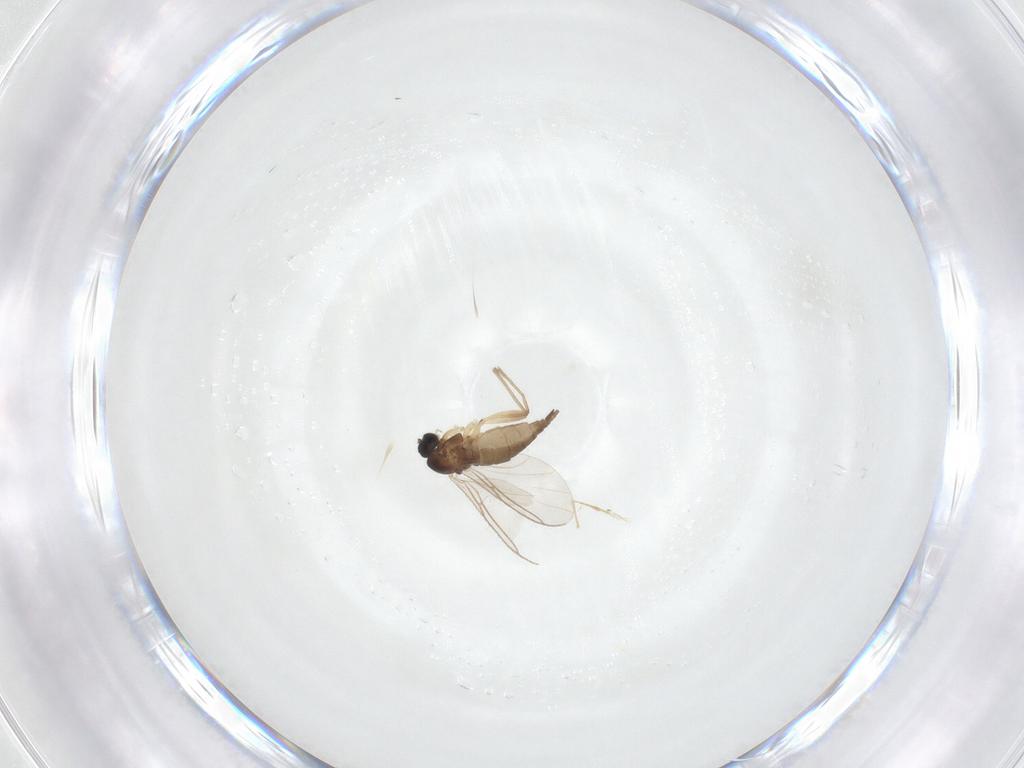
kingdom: Animalia
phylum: Arthropoda
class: Insecta
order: Diptera
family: Sciaridae
